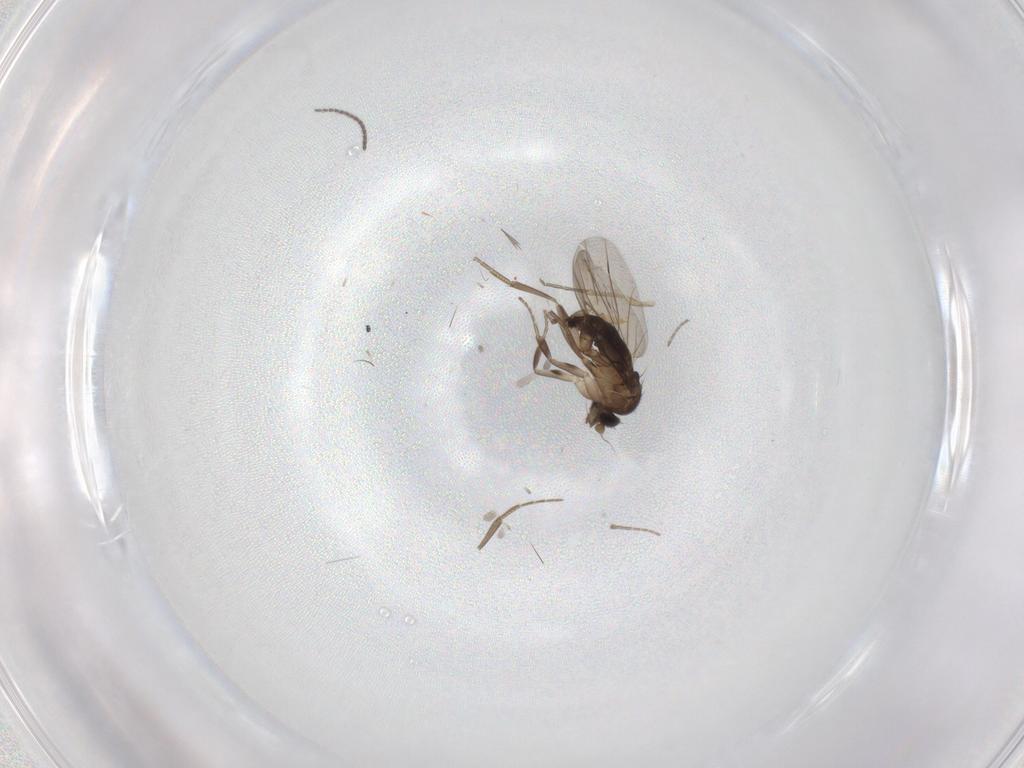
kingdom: Animalia
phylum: Arthropoda
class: Insecta
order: Diptera
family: Phoridae
